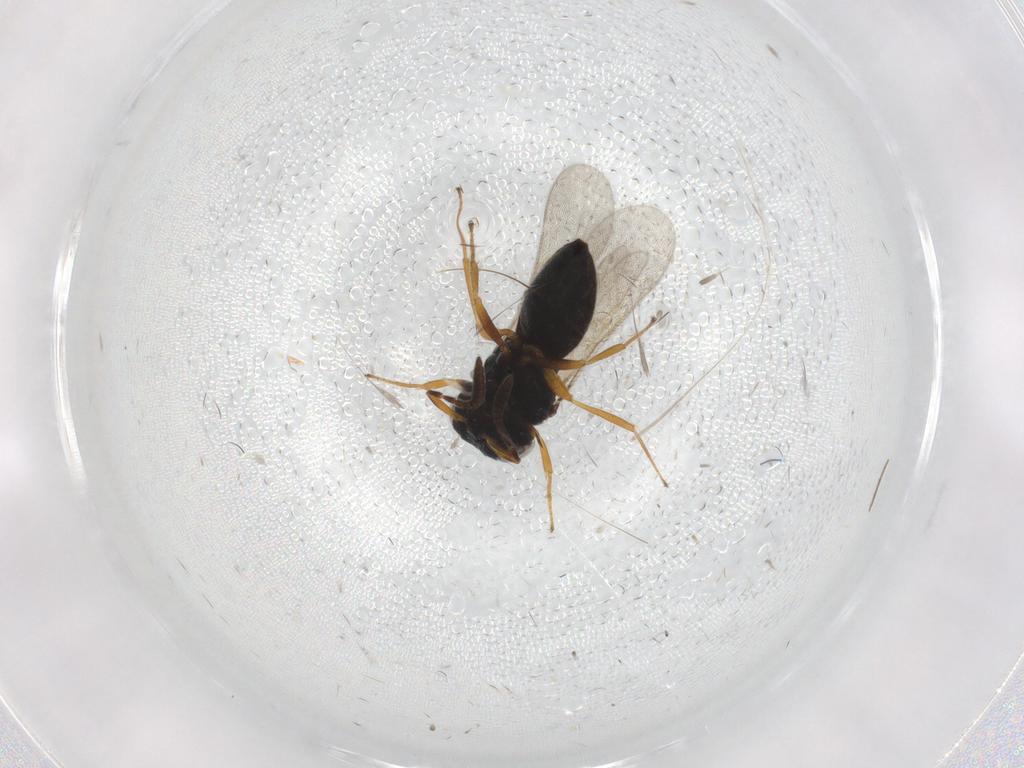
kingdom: Animalia
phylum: Arthropoda
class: Insecta
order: Hymenoptera
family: Scelionidae
